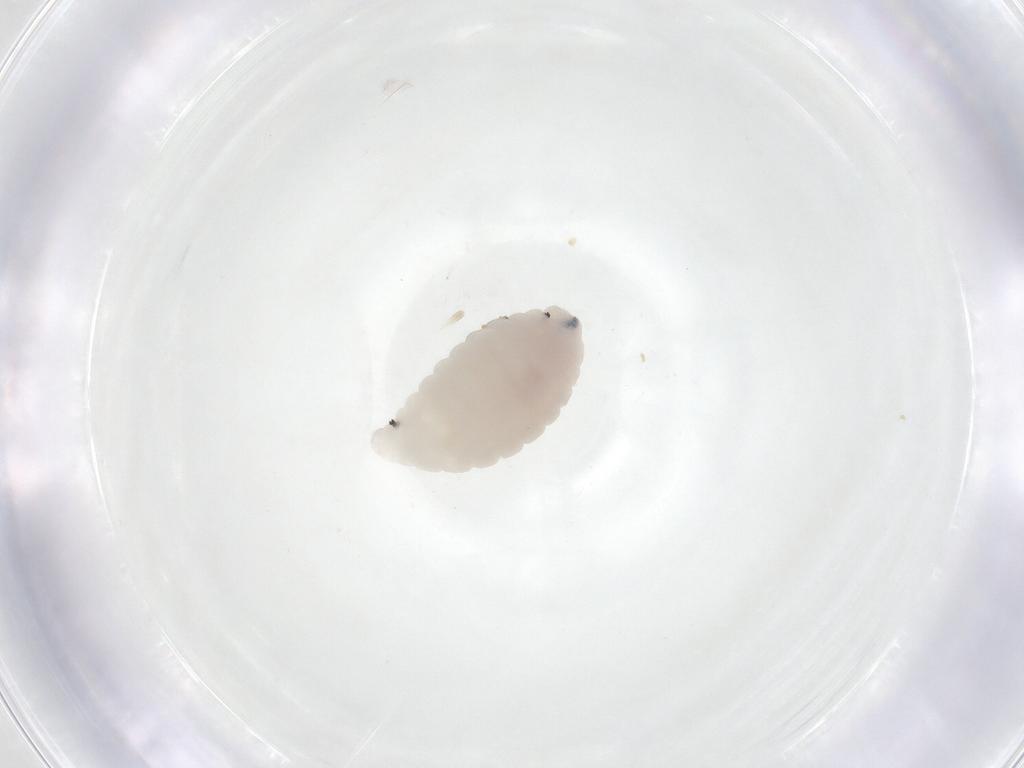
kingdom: Animalia
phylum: Arthropoda
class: Insecta
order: Diptera
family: Fergusoninidae
